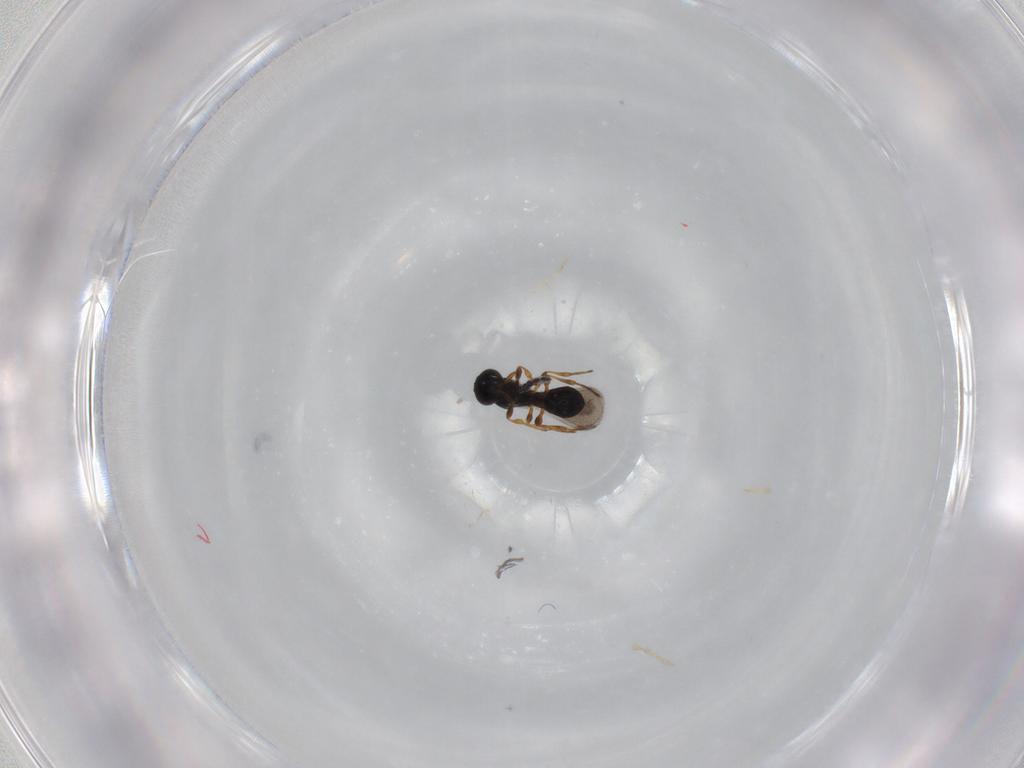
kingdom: Animalia
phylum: Arthropoda
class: Insecta
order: Hymenoptera
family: Platygastridae
